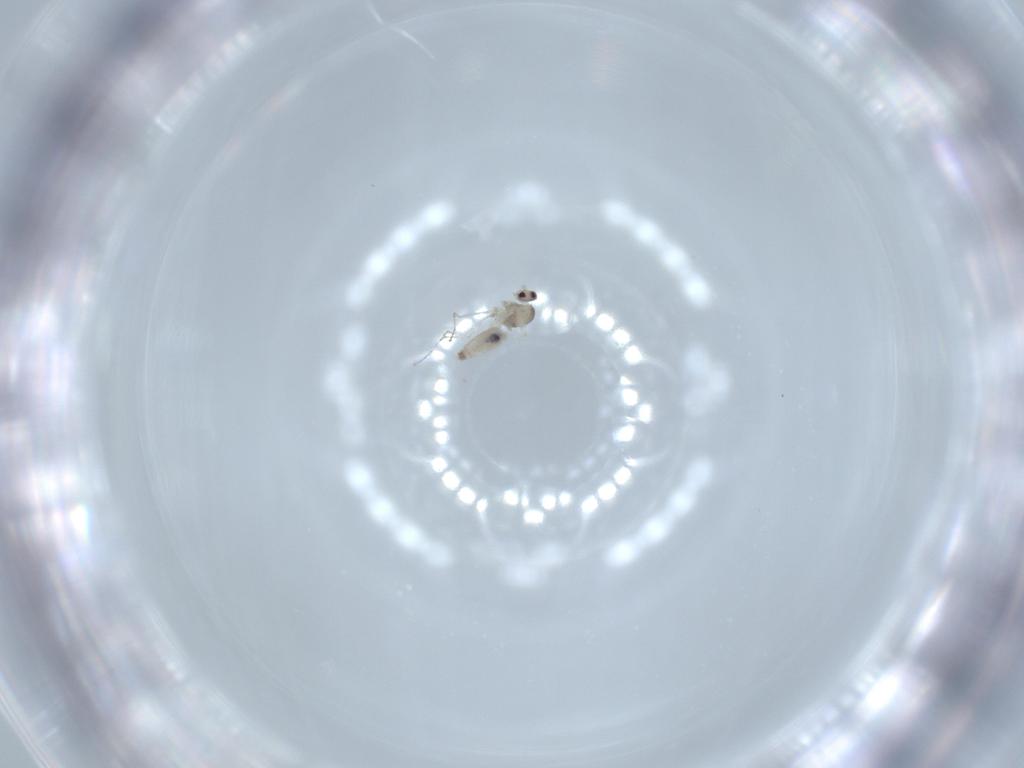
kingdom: Animalia
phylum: Arthropoda
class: Insecta
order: Diptera
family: Cecidomyiidae
